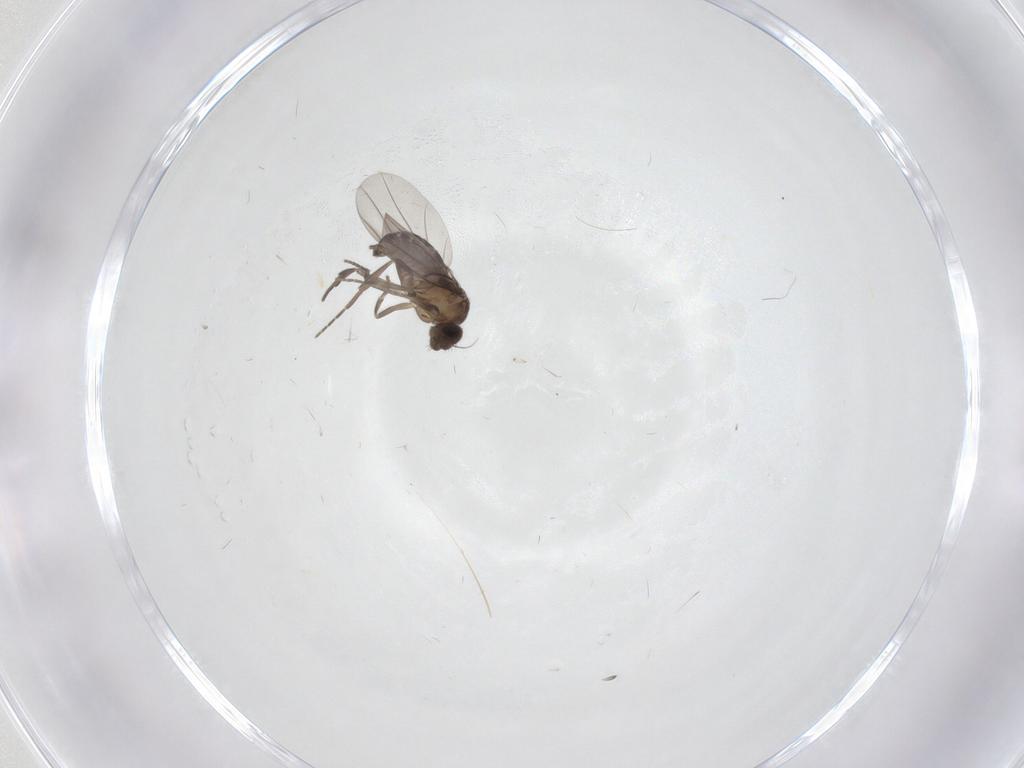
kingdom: Animalia
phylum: Arthropoda
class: Insecta
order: Diptera
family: Phoridae
